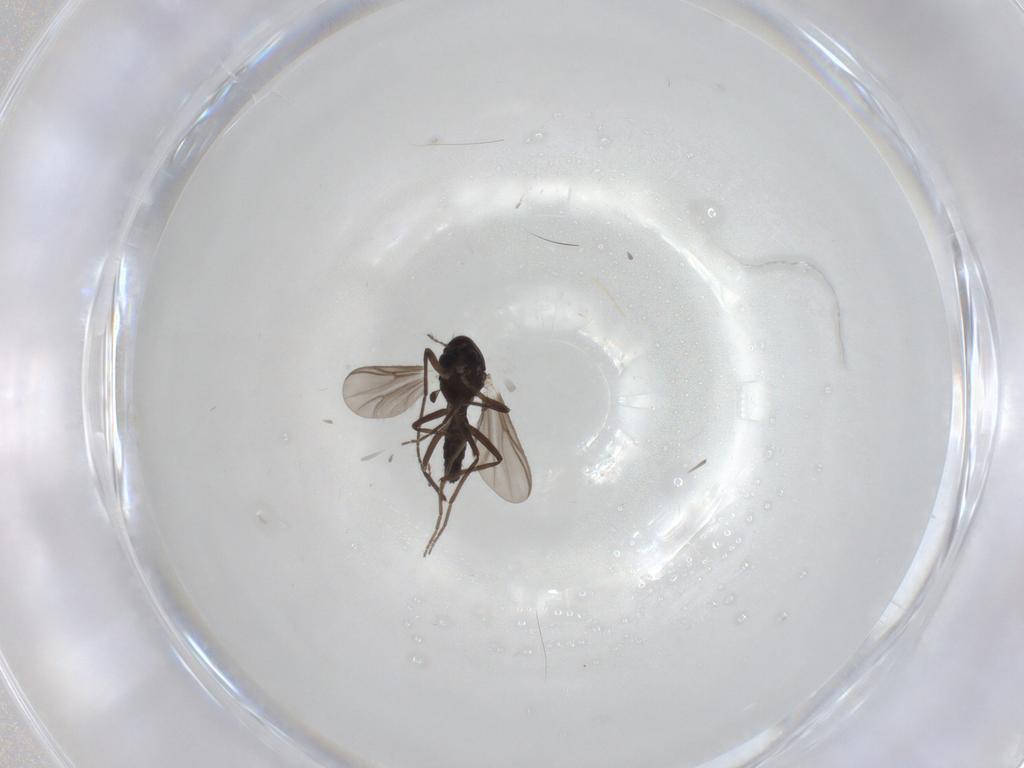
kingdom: Animalia
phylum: Arthropoda
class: Insecta
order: Diptera
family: Chironomidae
